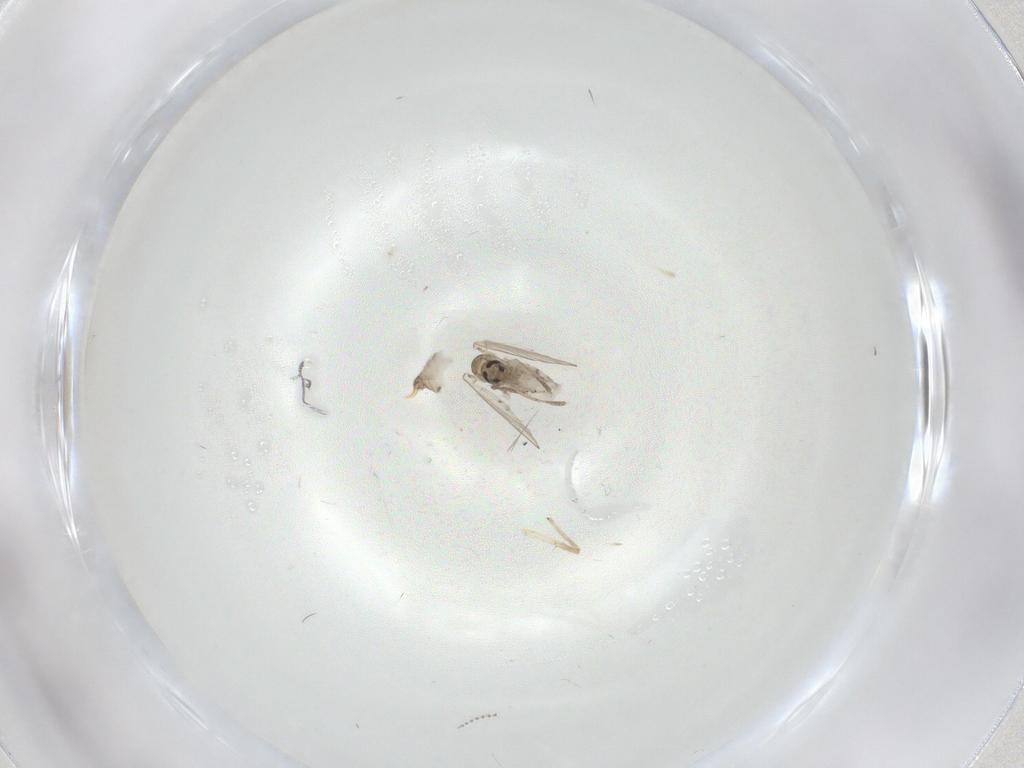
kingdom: Animalia
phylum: Arthropoda
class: Insecta
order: Diptera
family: Psychodidae
